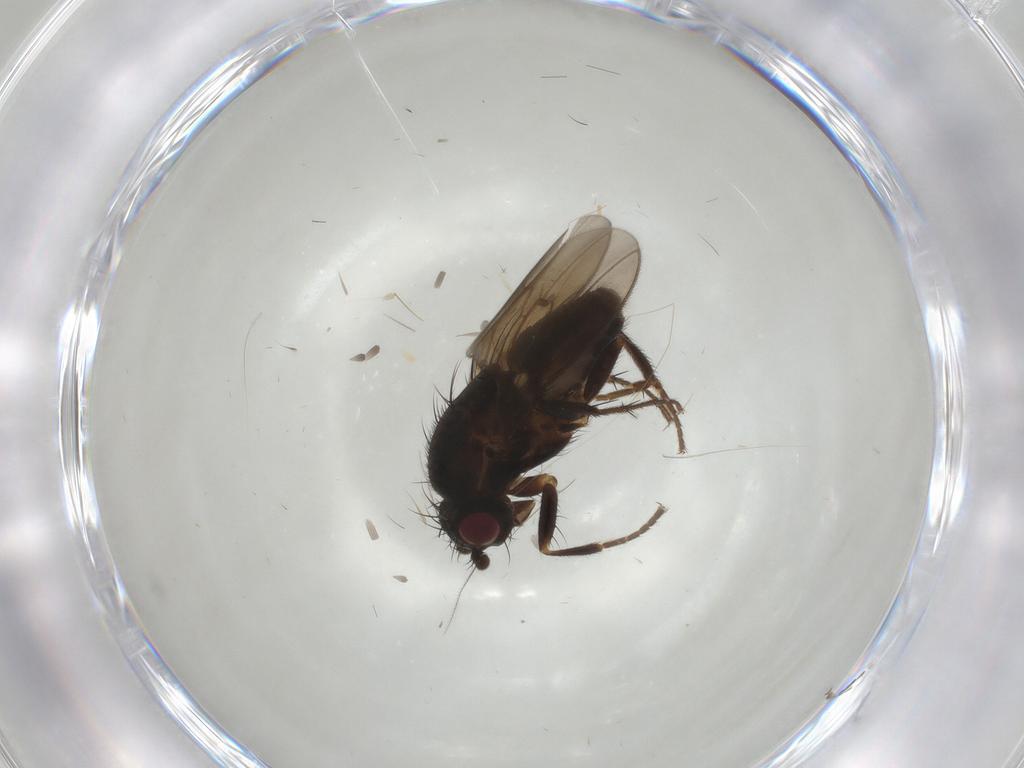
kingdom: Animalia
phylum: Arthropoda
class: Insecta
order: Diptera
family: Sphaeroceridae
